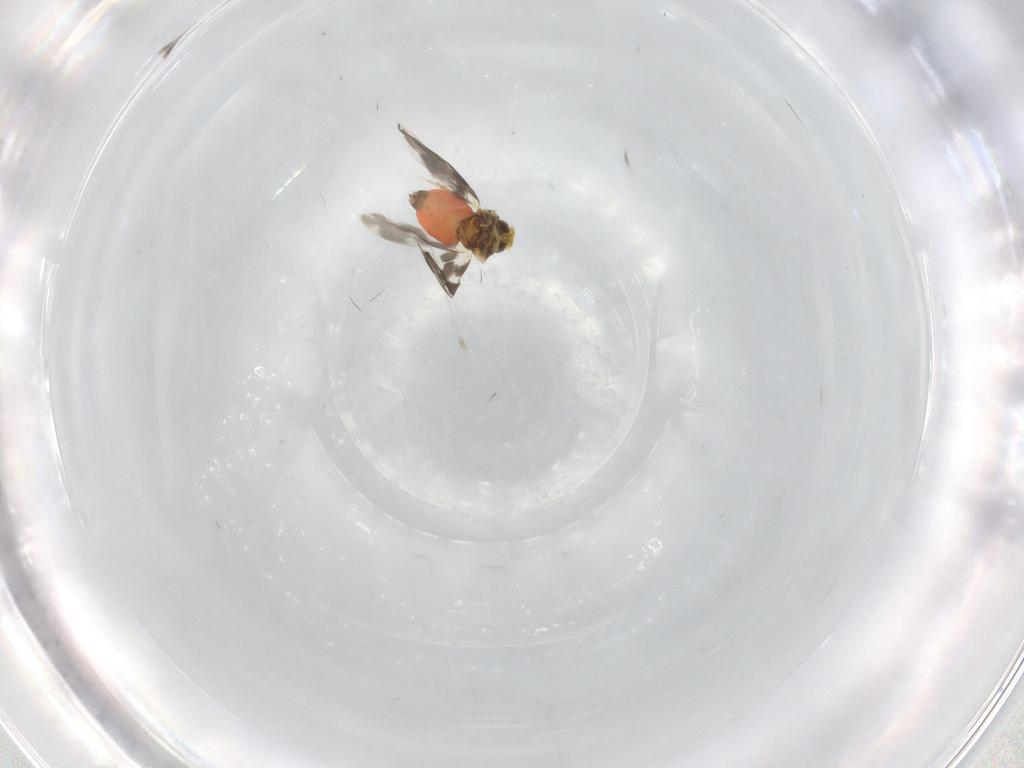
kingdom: Animalia
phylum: Arthropoda
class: Insecta
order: Hemiptera
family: Aleyrodidae
